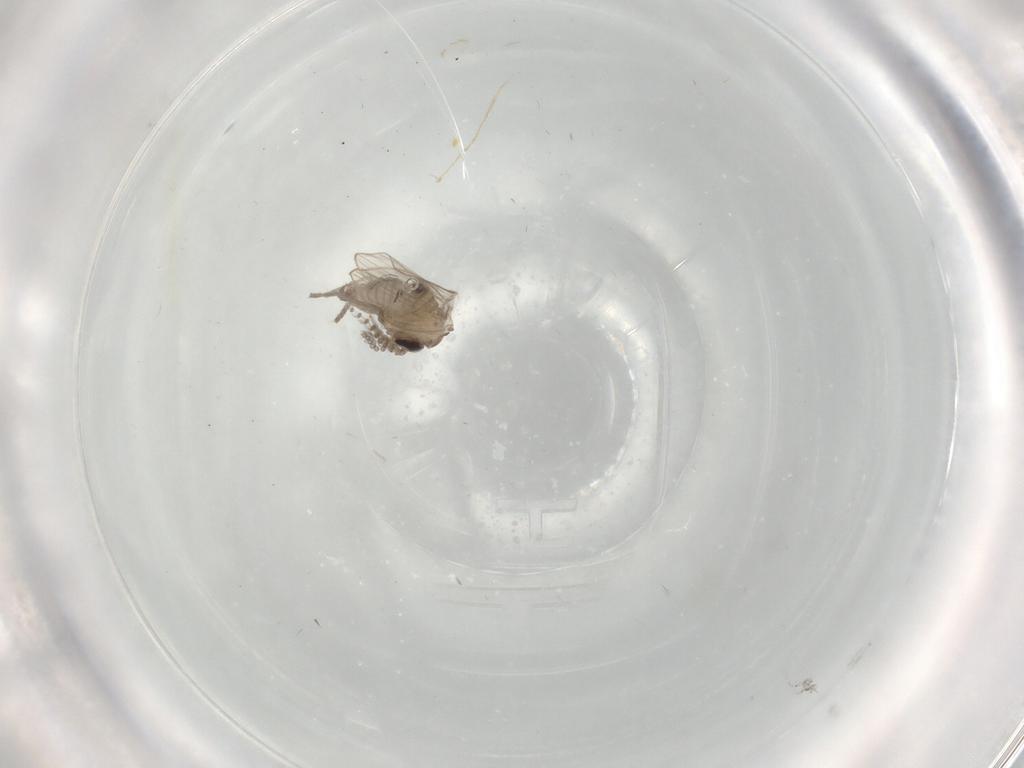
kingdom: Animalia
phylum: Arthropoda
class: Insecta
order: Diptera
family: Psychodidae
